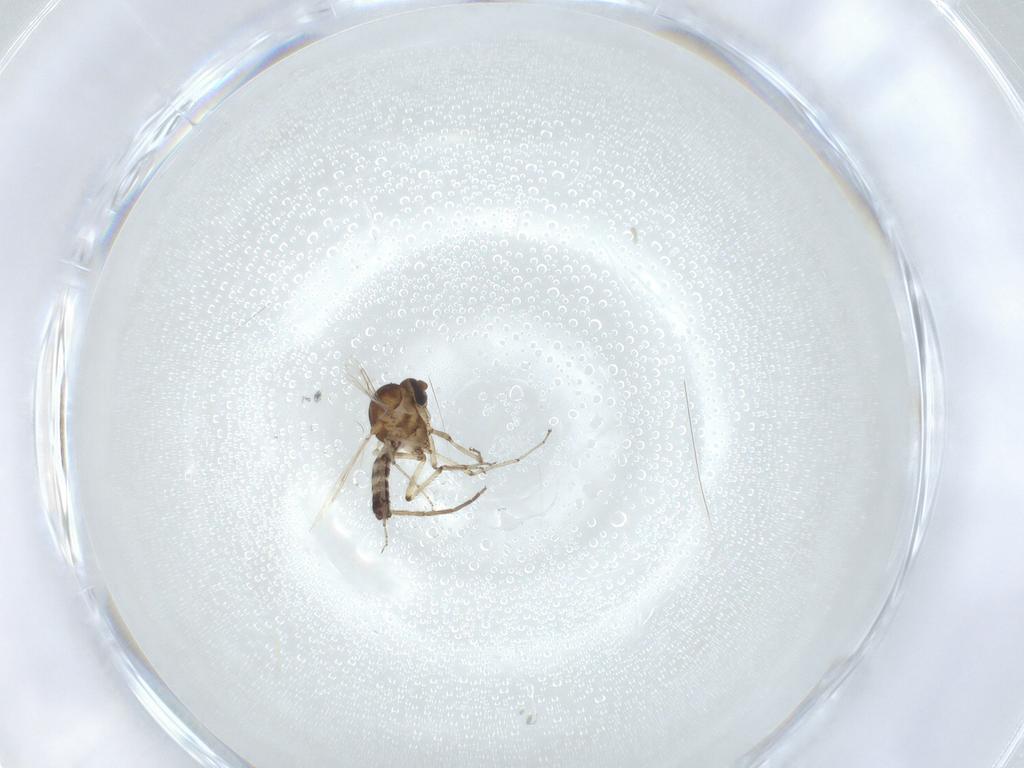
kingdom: Animalia
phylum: Arthropoda
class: Insecta
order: Diptera
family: Ceratopogonidae
